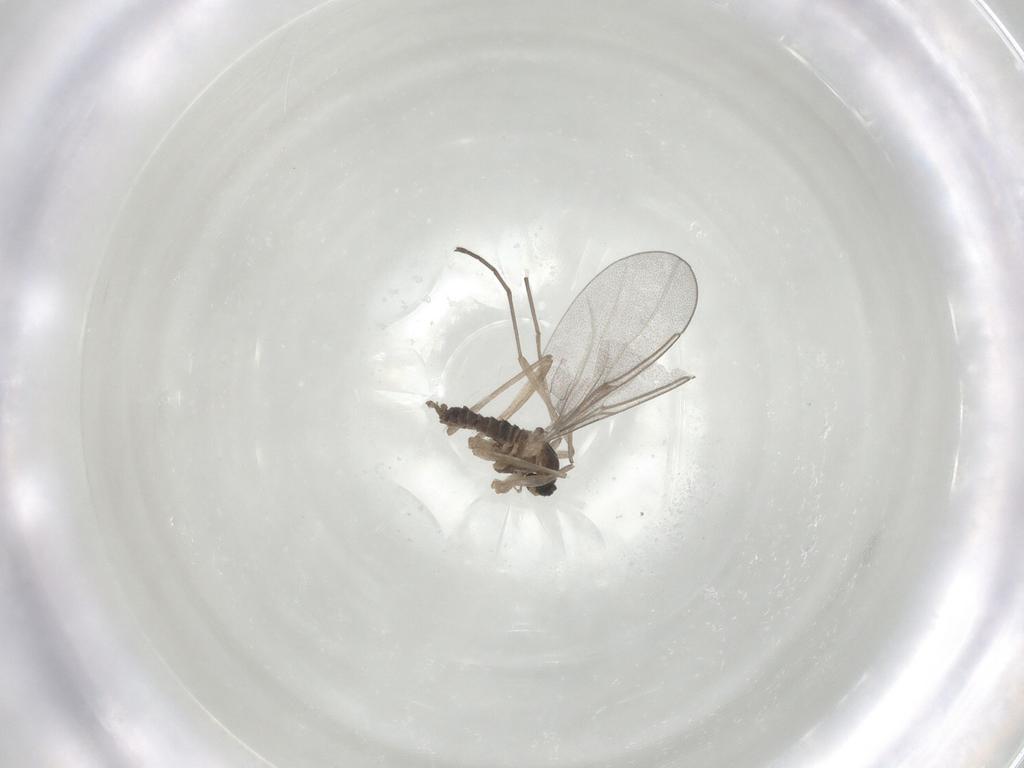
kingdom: Animalia
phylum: Arthropoda
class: Insecta
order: Diptera
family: Cecidomyiidae
